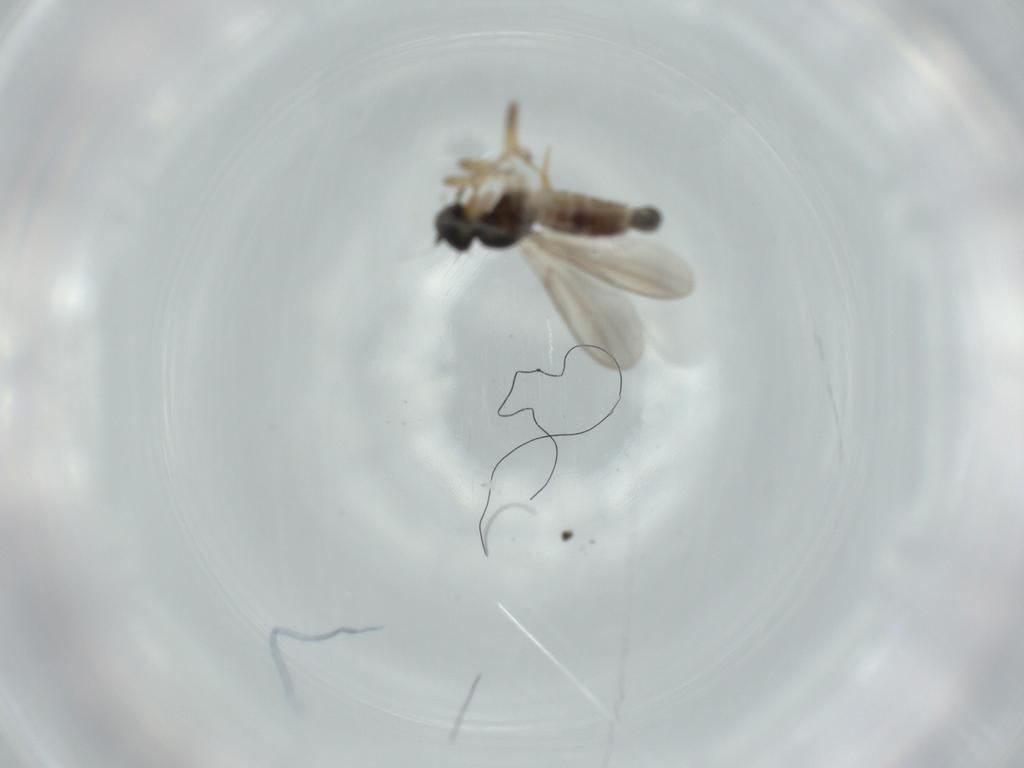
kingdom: Animalia
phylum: Arthropoda
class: Insecta
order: Diptera
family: Hybotidae
